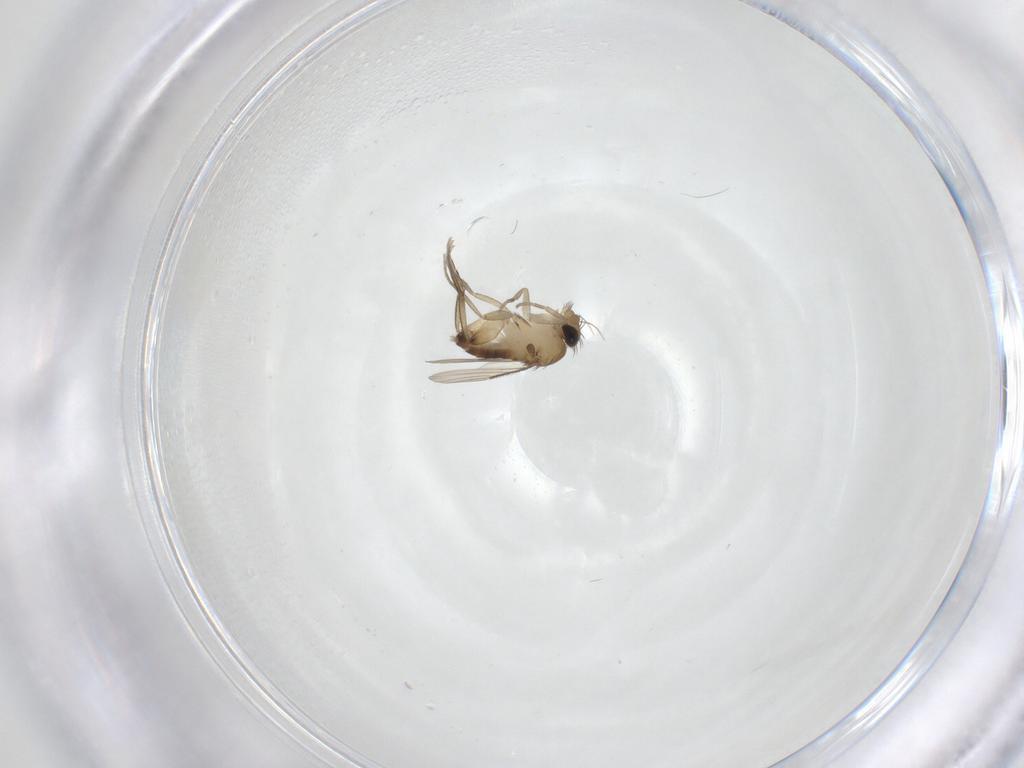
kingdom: Animalia
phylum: Arthropoda
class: Insecta
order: Diptera
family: Phoridae
